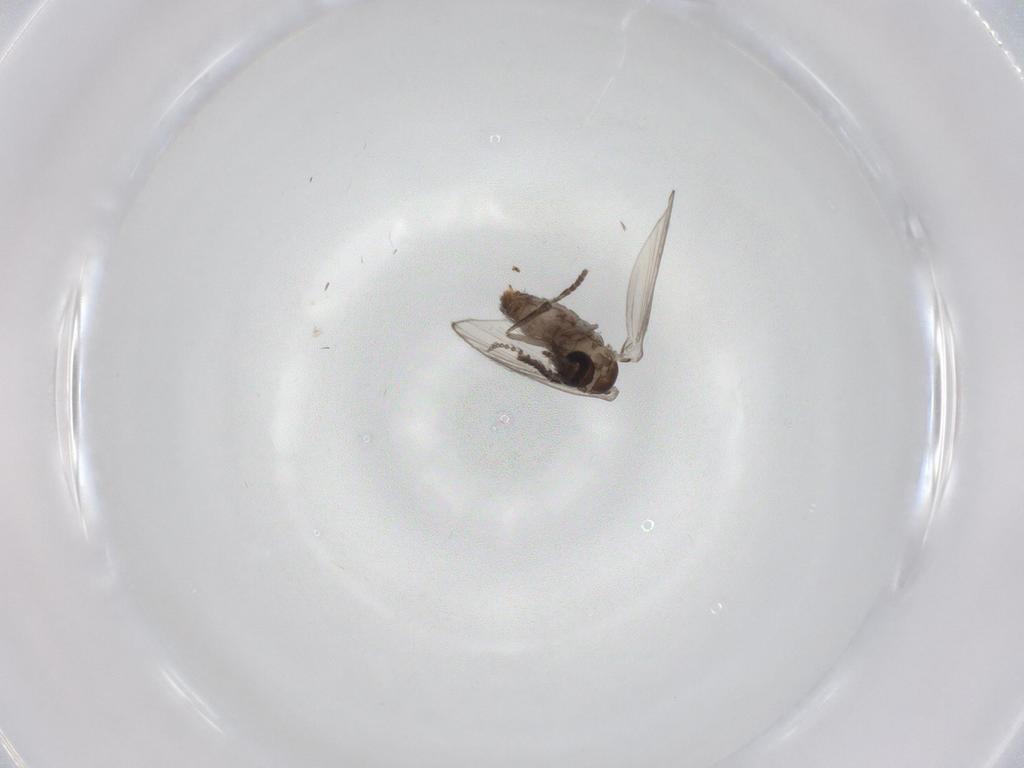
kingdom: Animalia
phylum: Arthropoda
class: Insecta
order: Diptera
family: Psychodidae
